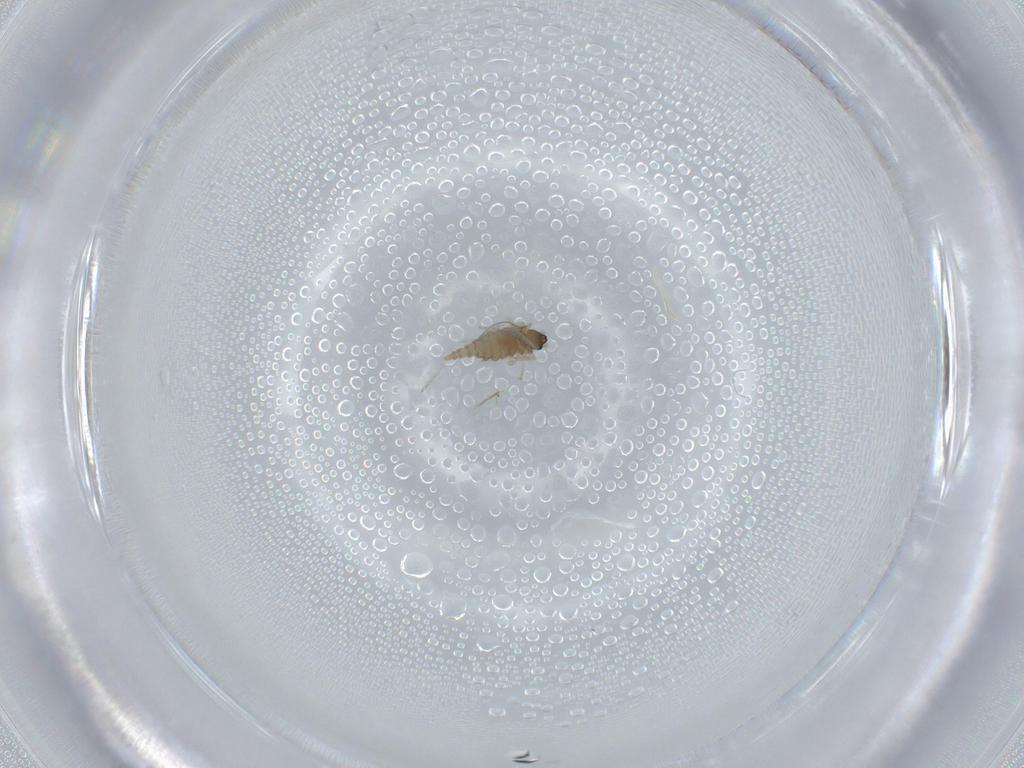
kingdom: Animalia
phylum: Arthropoda
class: Insecta
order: Diptera
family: Cecidomyiidae
